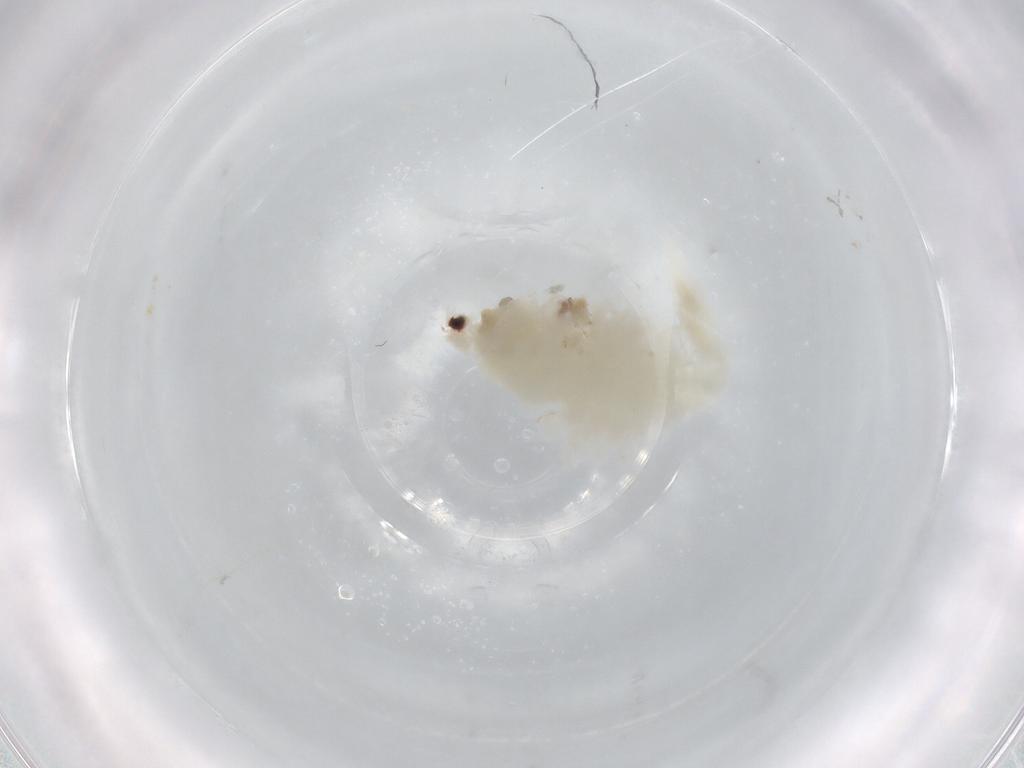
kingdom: Animalia
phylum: Arthropoda
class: Branchiopoda
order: Anostraca
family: Branchinectidae
